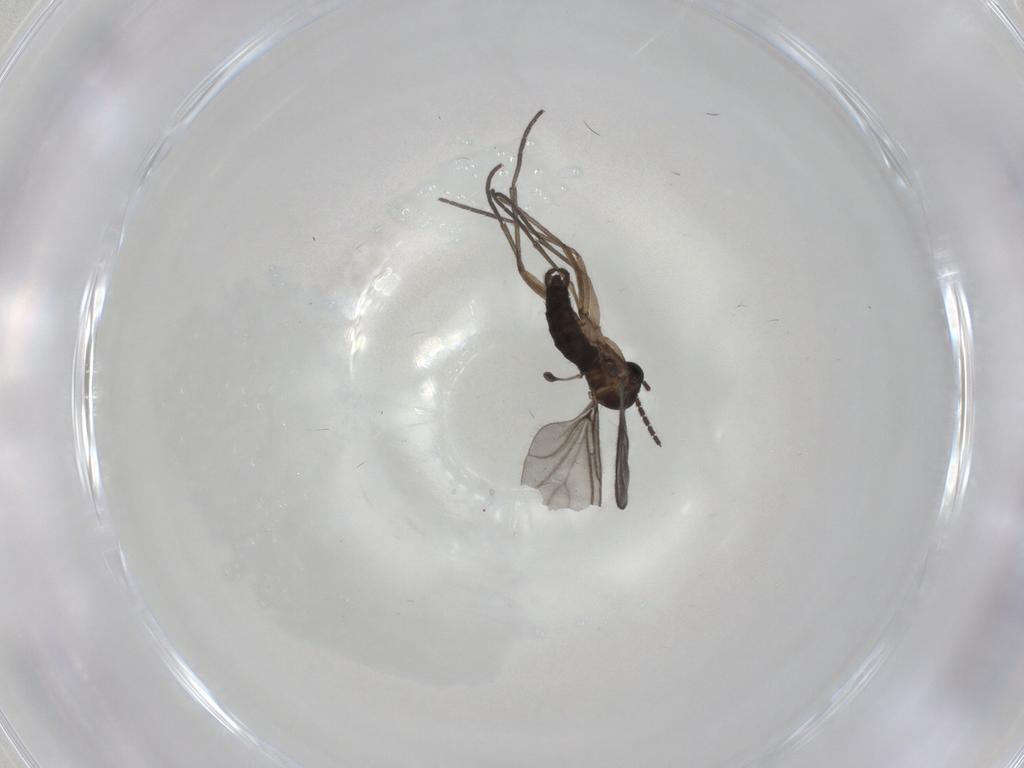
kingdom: Animalia
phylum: Arthropoda
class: Insecta
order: Diptera
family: Sciaridae
